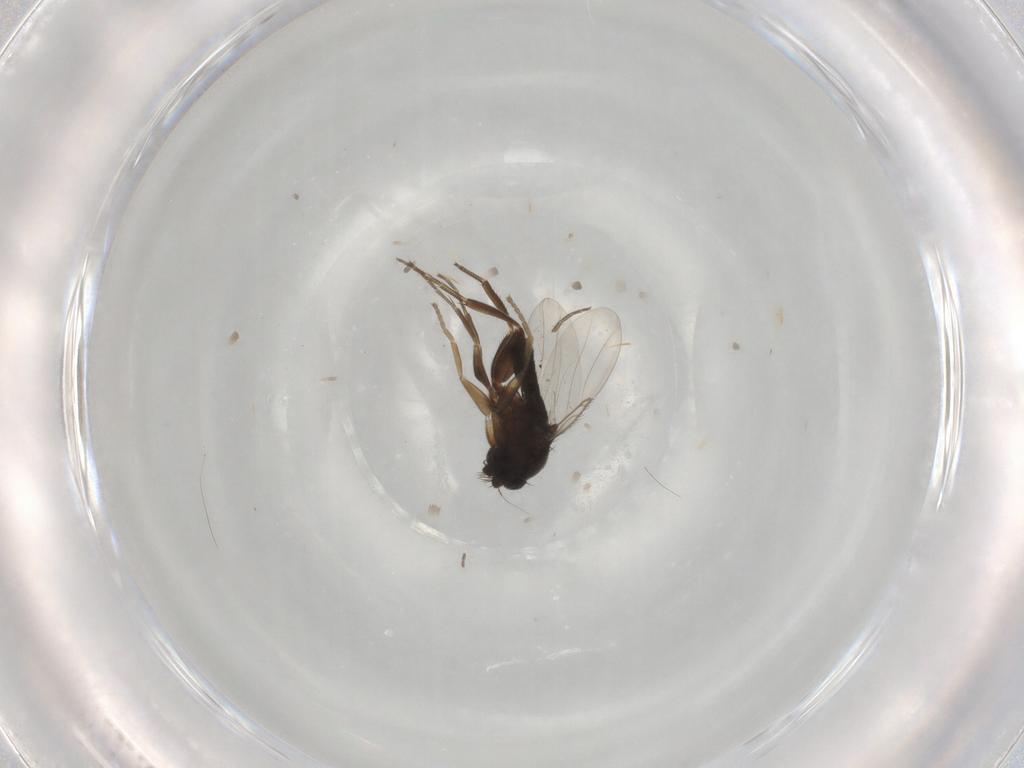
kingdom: Animalia
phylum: Arthropoda
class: Insecta
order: Diptera
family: Phoridae
